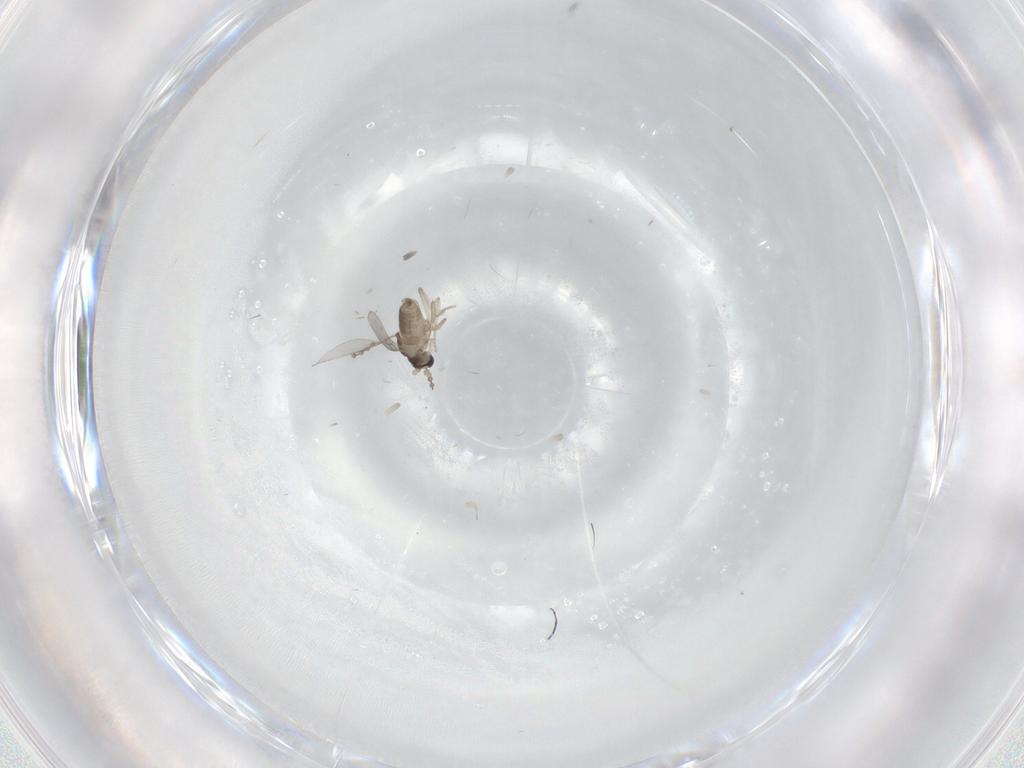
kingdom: Animalia
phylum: Arthropoda
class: Insecta
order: Diptera
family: Cecidomyiidae
